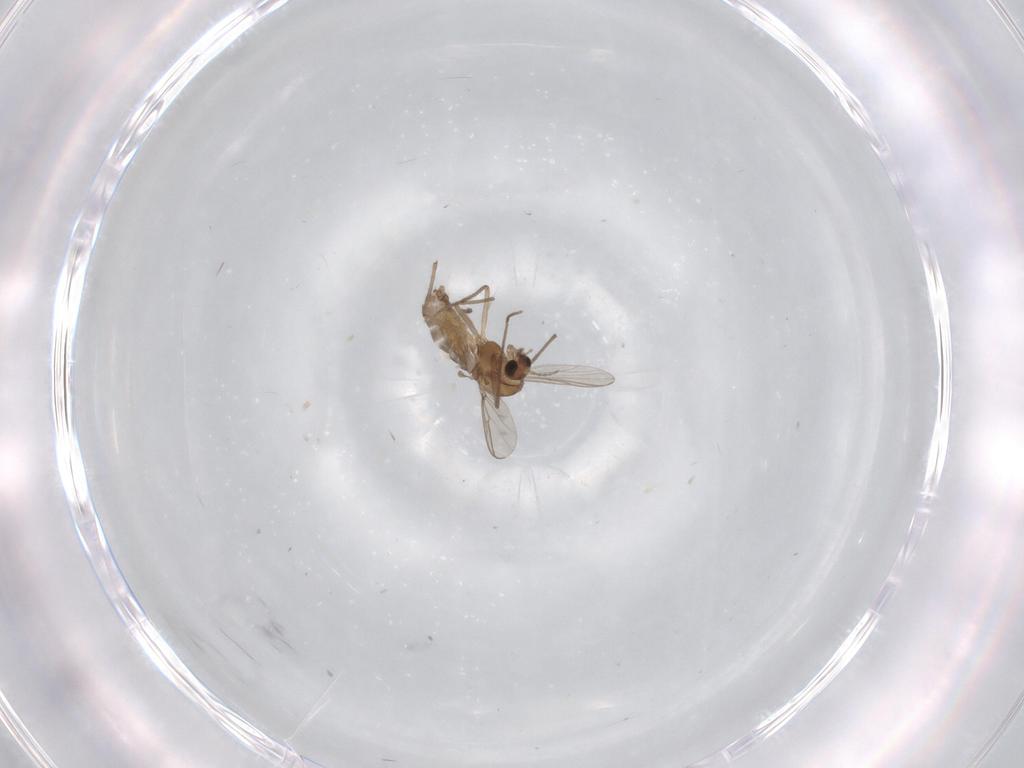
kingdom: Animalia
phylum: Arthropoda
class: Insecta
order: Diptera
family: Chironomidae
